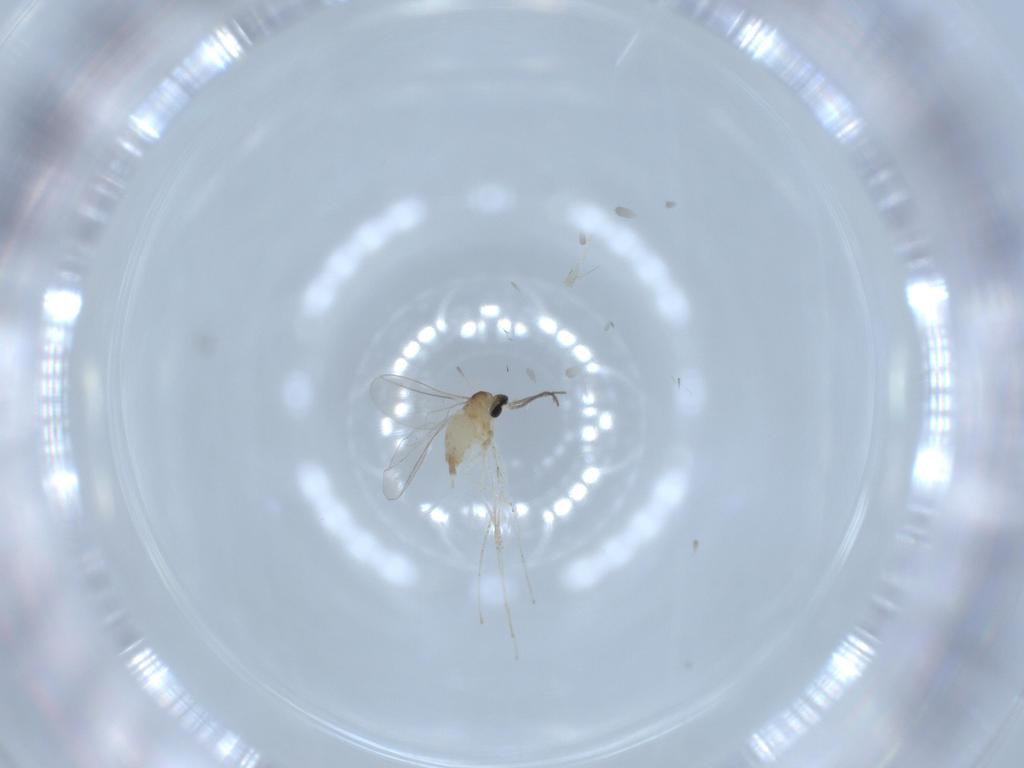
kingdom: Animalia
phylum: Arthropoda
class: Insecta
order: Diptera
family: Cecidomyiidae
